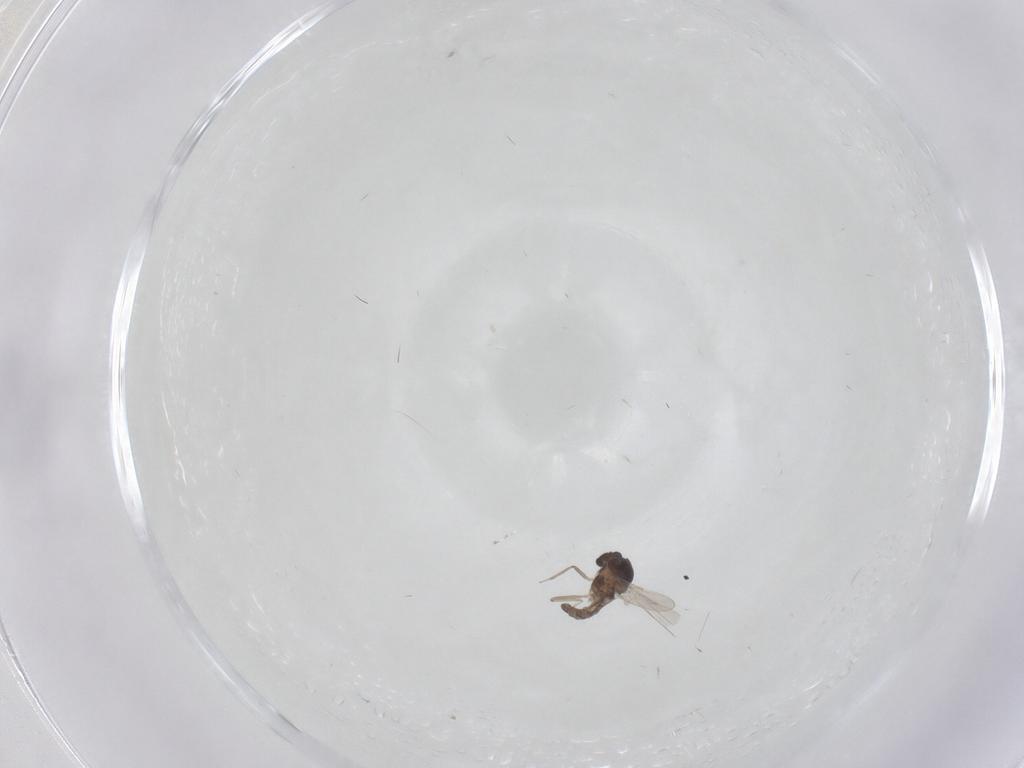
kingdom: Animalia
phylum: Arthropoda
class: Insecta
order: Diptera
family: Ceratopogonidae
